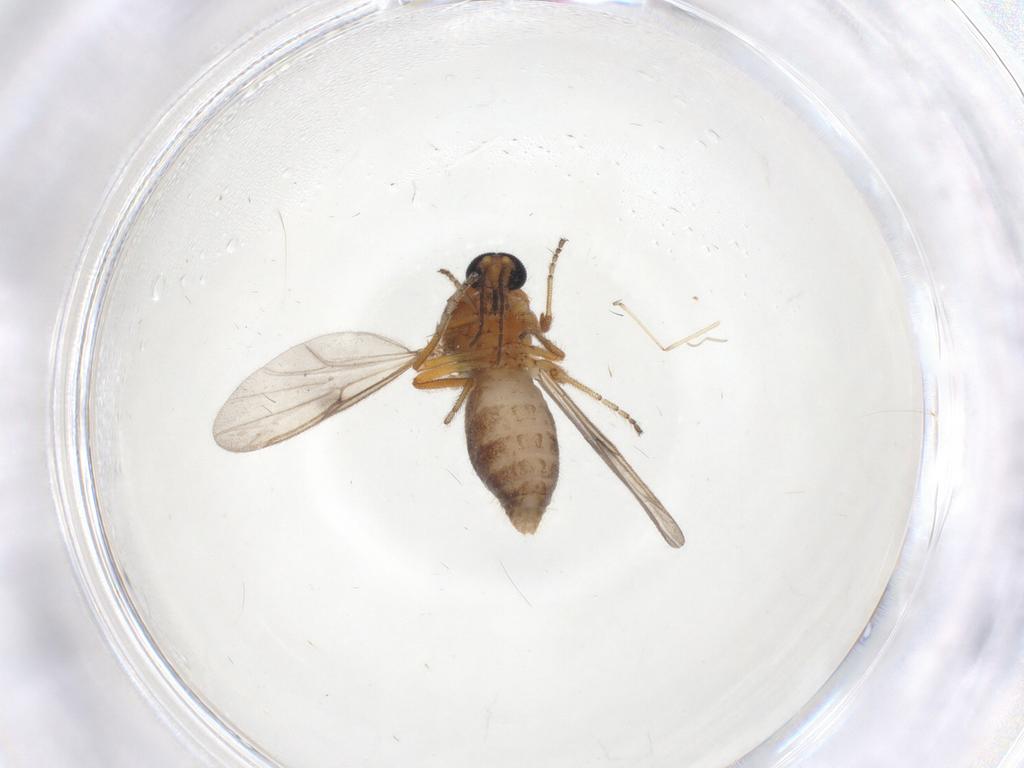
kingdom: Animalia
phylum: Arthropoda
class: Insecta
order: Diptera
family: Ceratopogonidae
